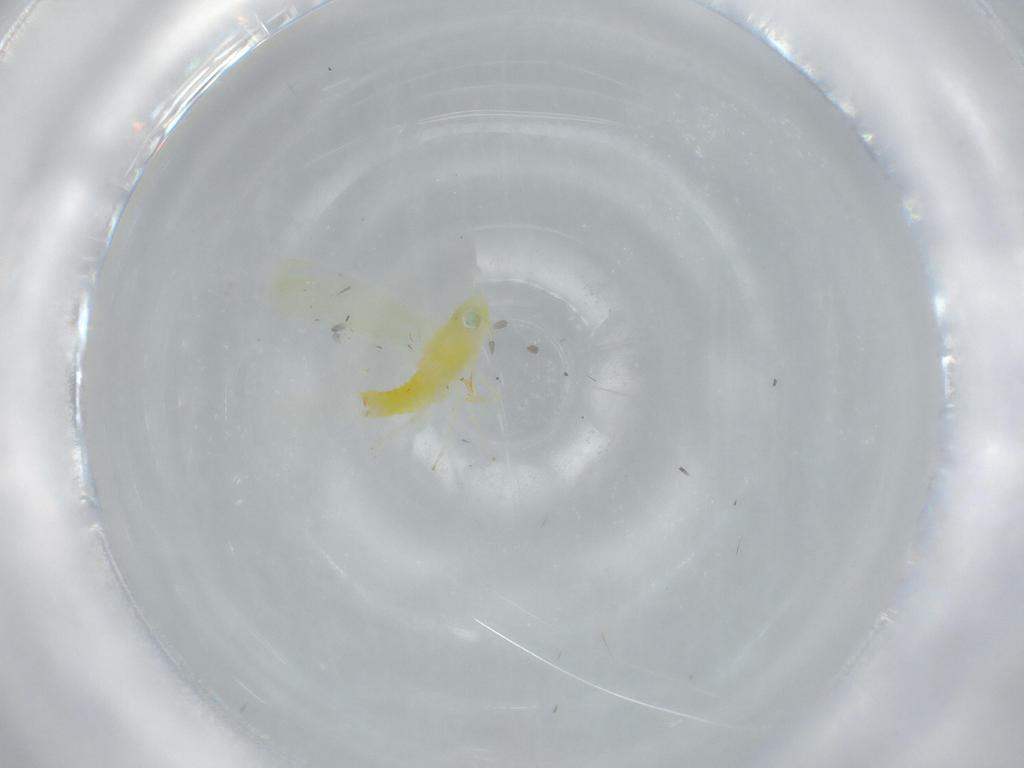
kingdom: Animalia
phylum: Arthropoda
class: Insecta
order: Hemiptera
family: Cicadellidae
